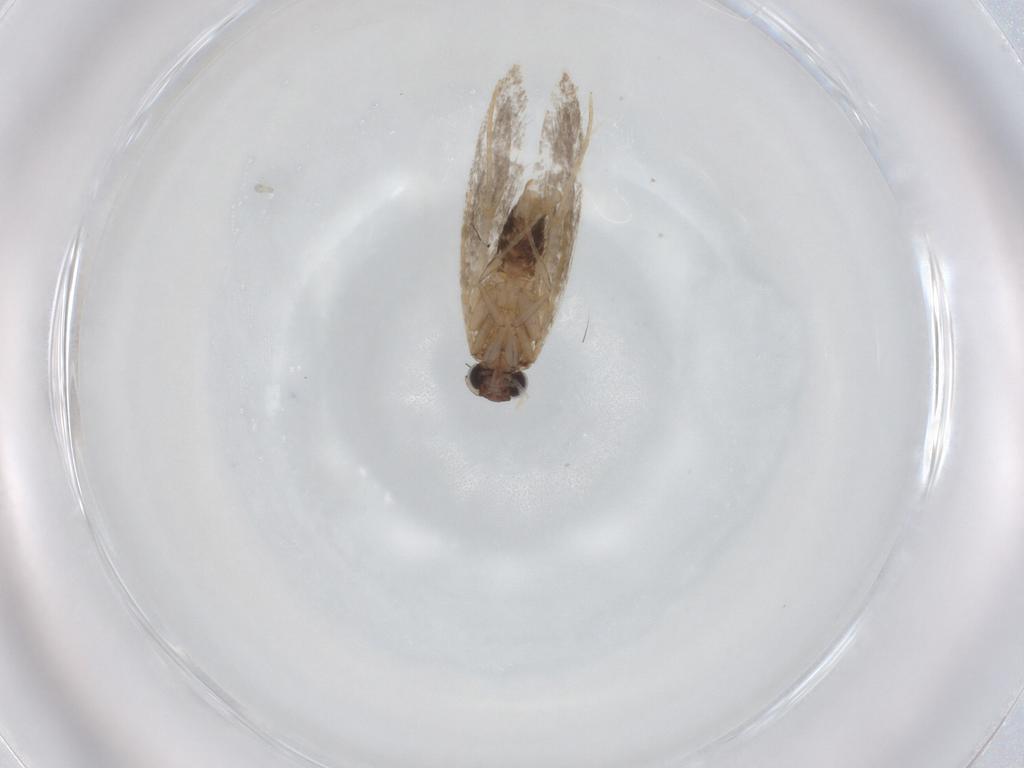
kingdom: Animalia
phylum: Arthropoda
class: Insecta
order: Lepidoptera
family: Tineidae
